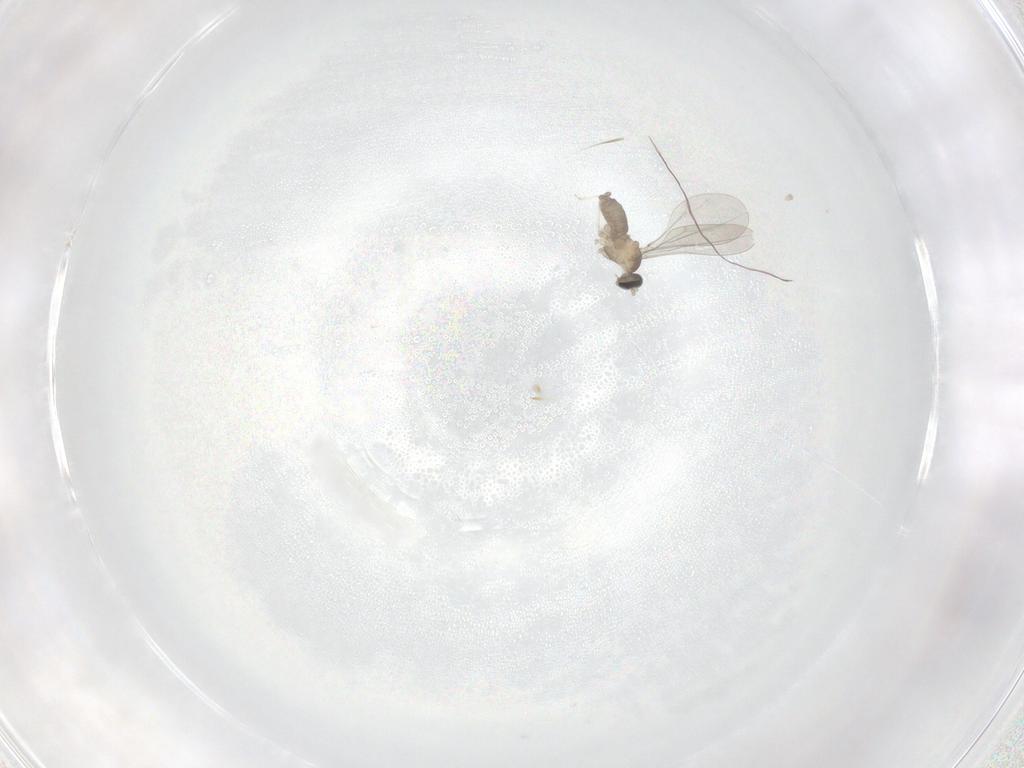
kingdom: Animalia
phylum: Arthropoda
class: Insecta
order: Diptera
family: Cecidomyiidae
